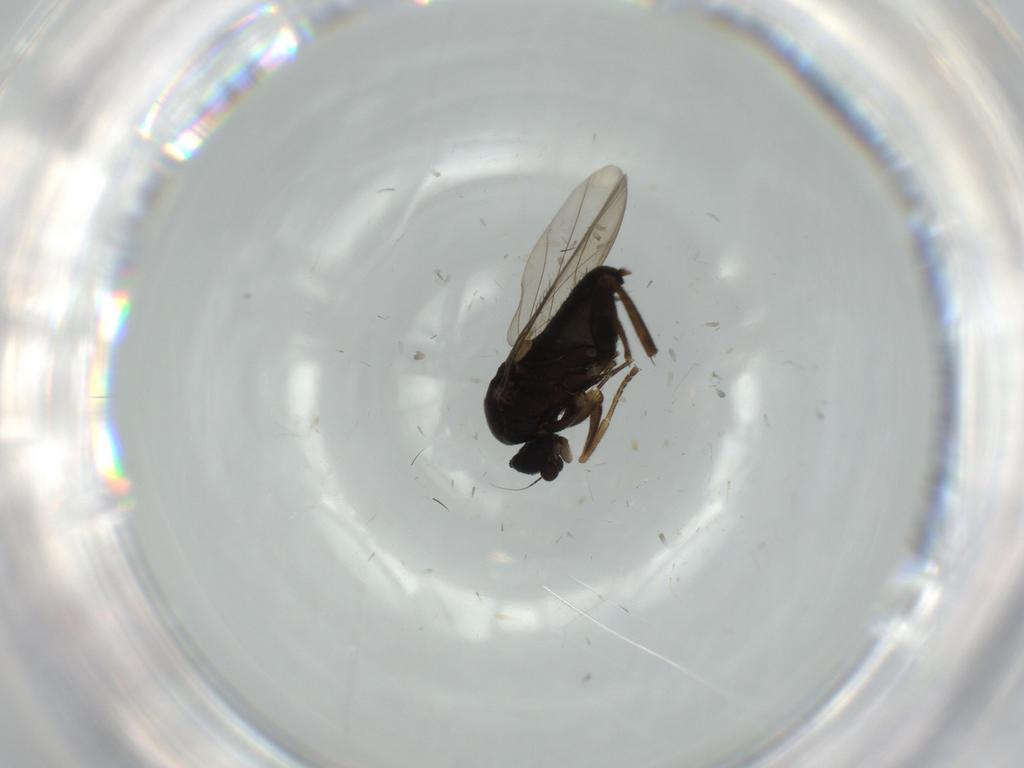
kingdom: Animalia
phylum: Arthropoda
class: Insecta
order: Diptera
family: Phoridae
